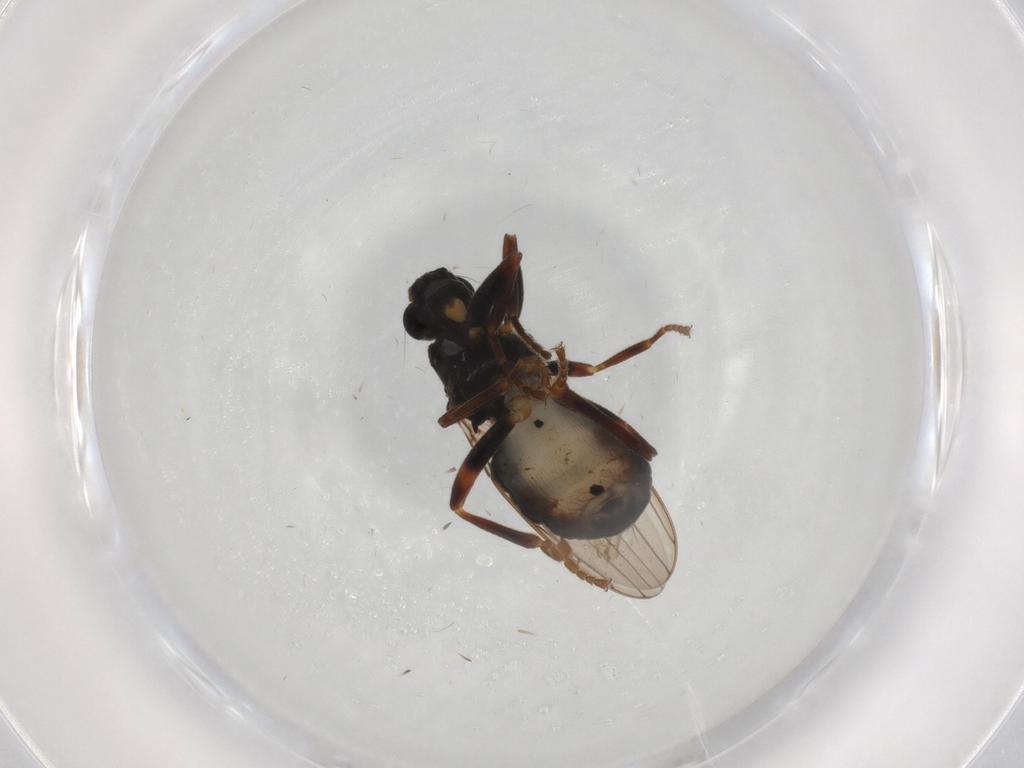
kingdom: Animalia
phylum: Arthropoda
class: Insecta
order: Diptera
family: Sphaeroceridae
